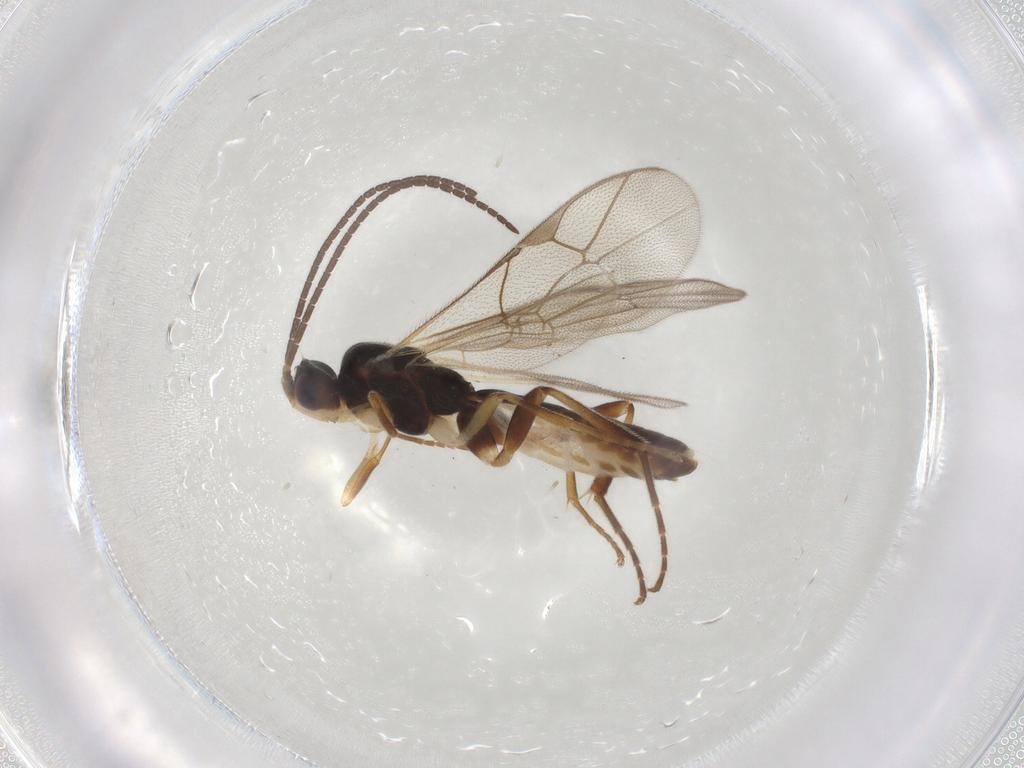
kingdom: Animalia
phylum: Arthropoda
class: Insecta
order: Hymenoptera
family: Ichneumonidae
